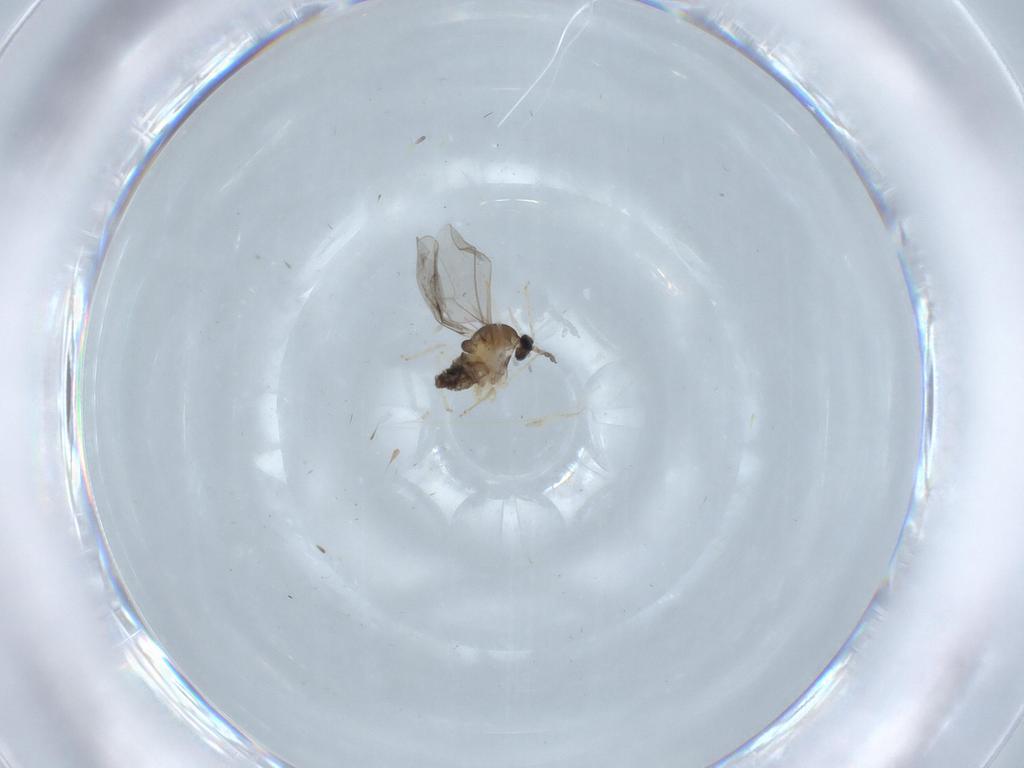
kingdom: Animalia
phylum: Arthropoda
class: Insecta
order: Diptera
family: Cecidomyiidae
